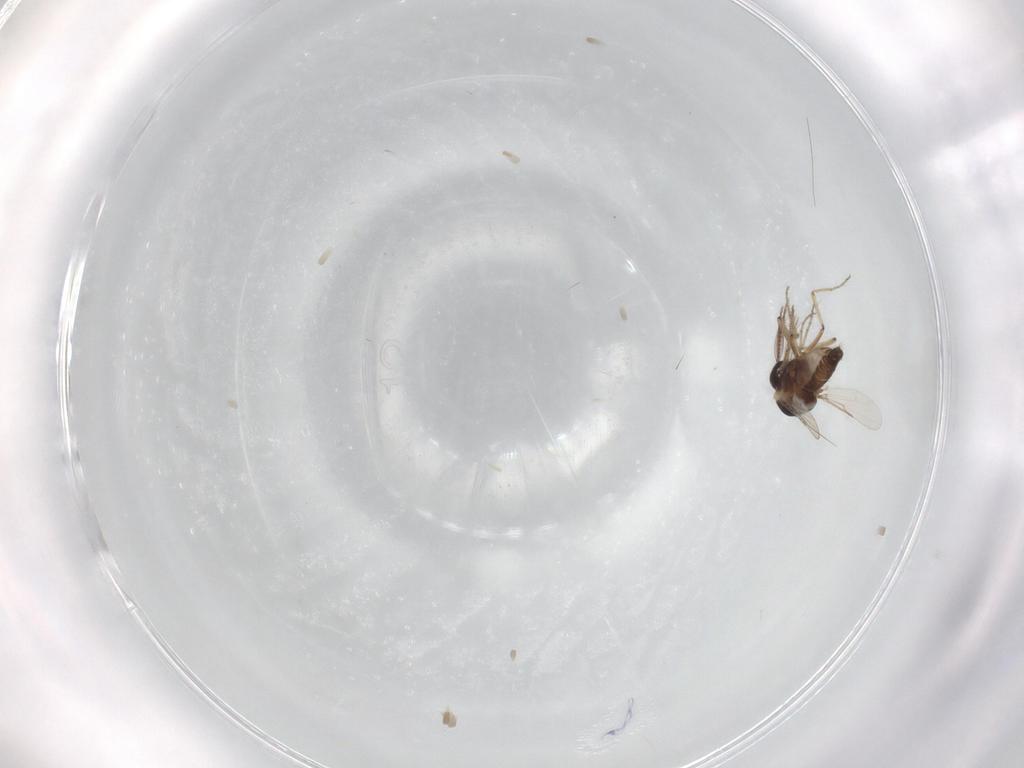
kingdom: Animalia
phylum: Arthropoda
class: Insecta
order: Diptera
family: Ceratopogonidae
